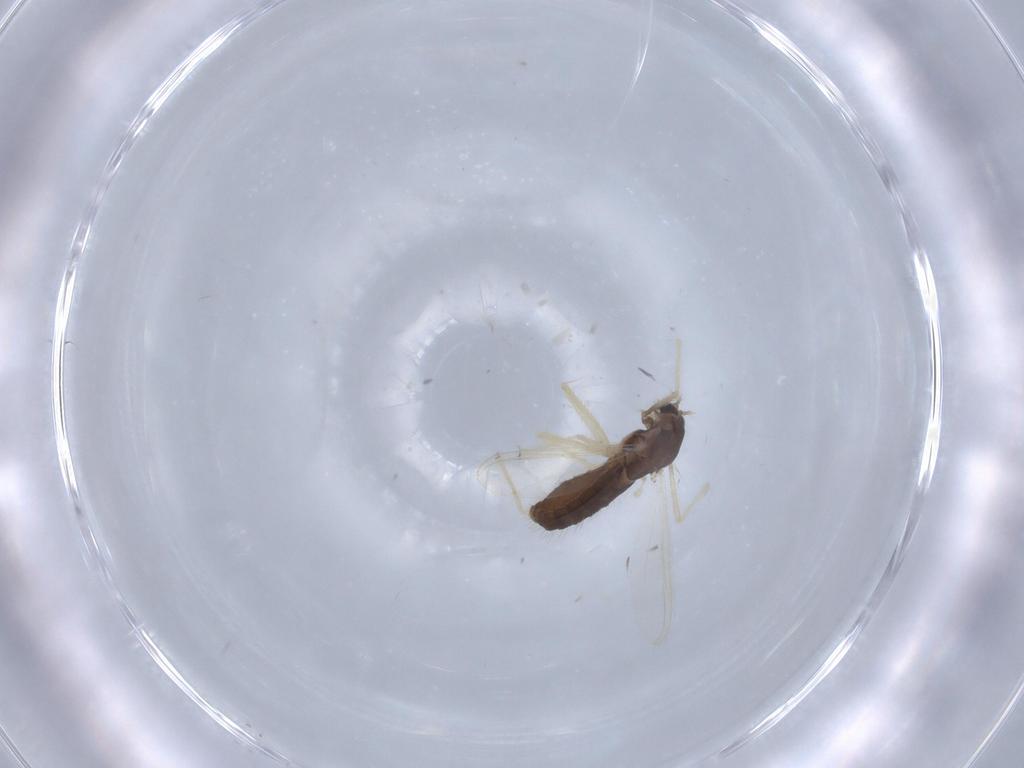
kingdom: Animalia
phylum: Arthropoda
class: Insecta
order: Diptera
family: Chironomidae
